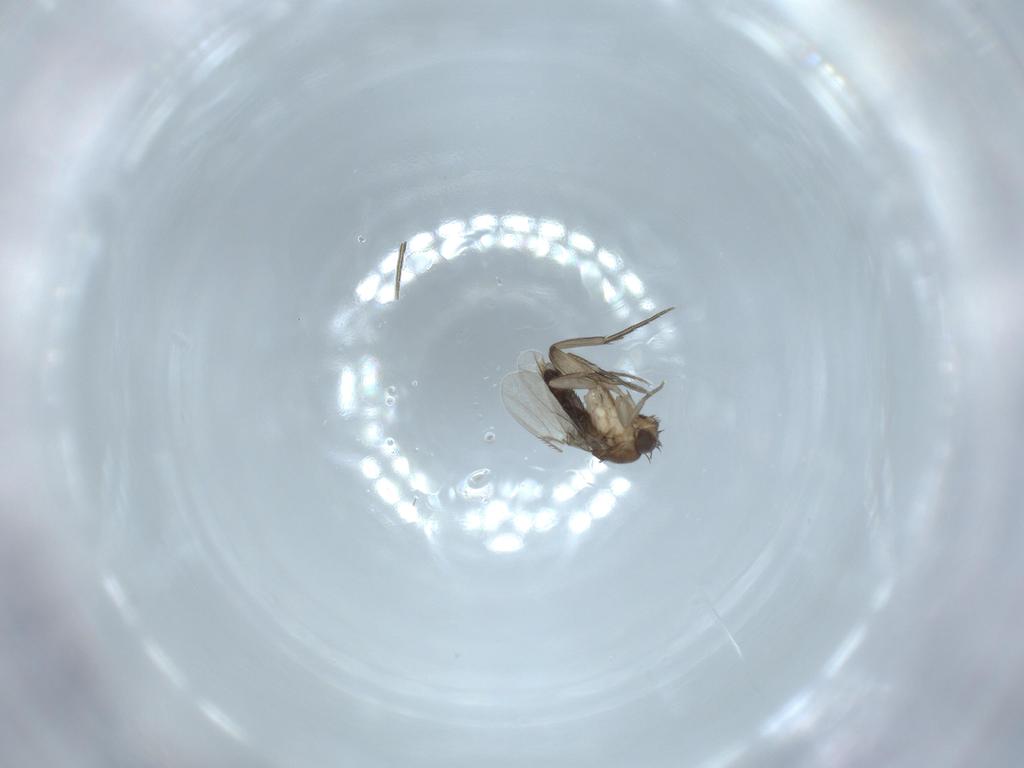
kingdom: Animalia
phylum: Arthropoda
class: Insecta
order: Diptera
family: Phoridae
